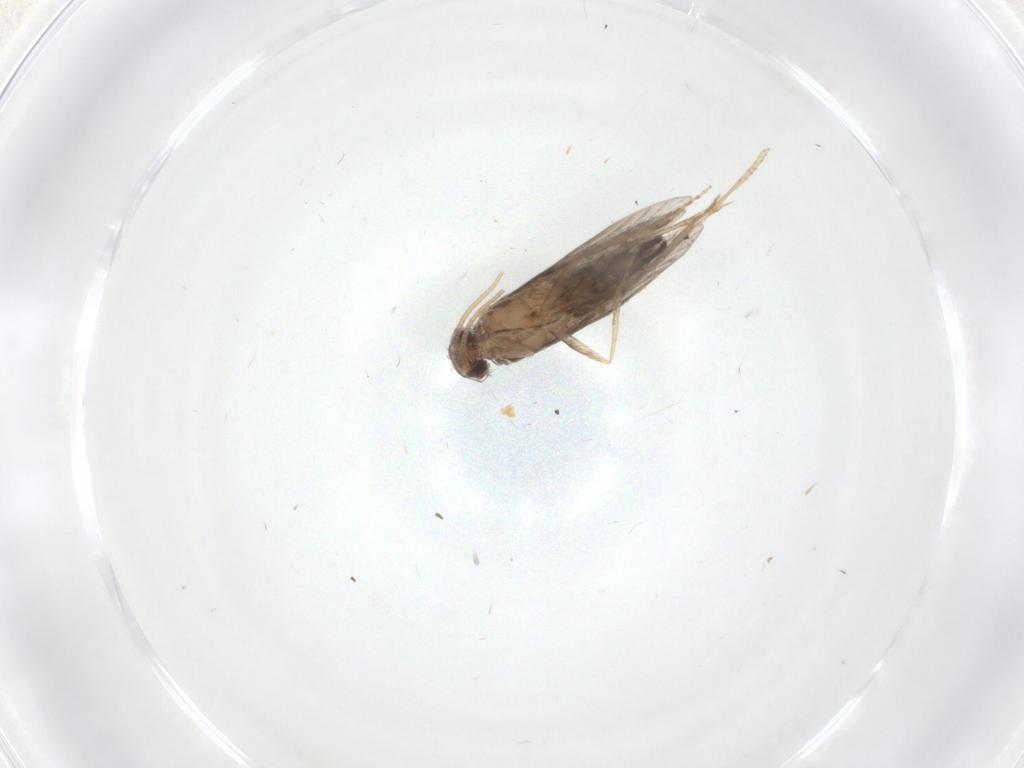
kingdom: Animalia
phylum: Arthropoda
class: Insecta
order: Trichoptera
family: Hydroptilidae
